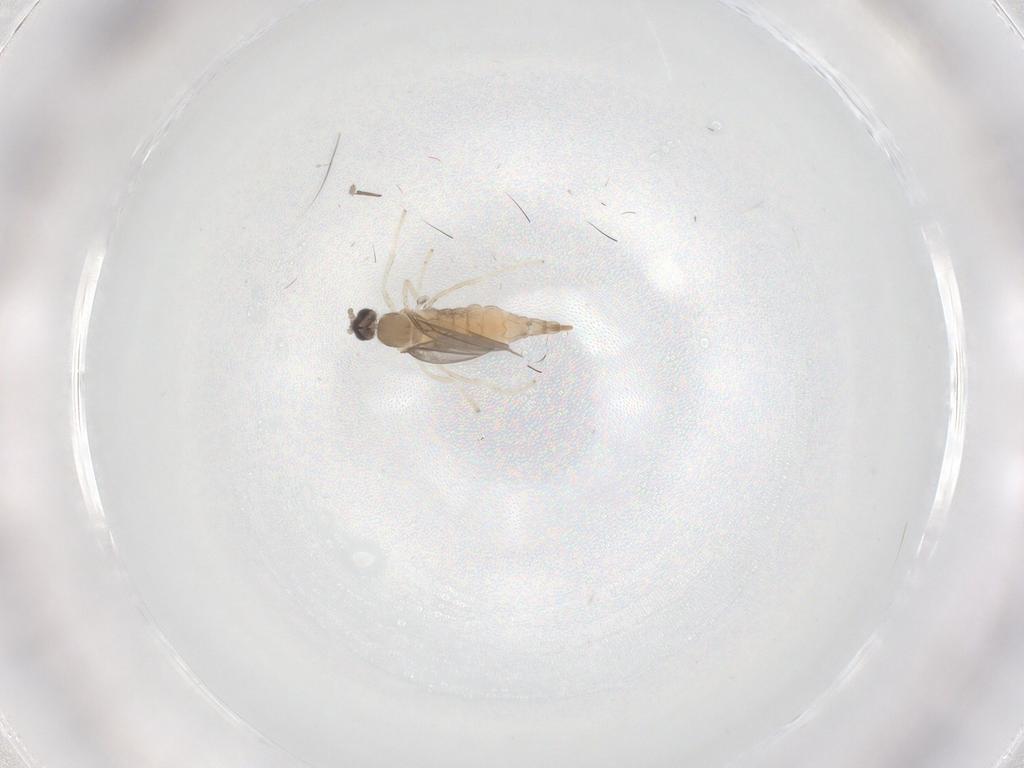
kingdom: Animalia
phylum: Arthropoda
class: Insecta
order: Diptera
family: Cecidomyiidae
